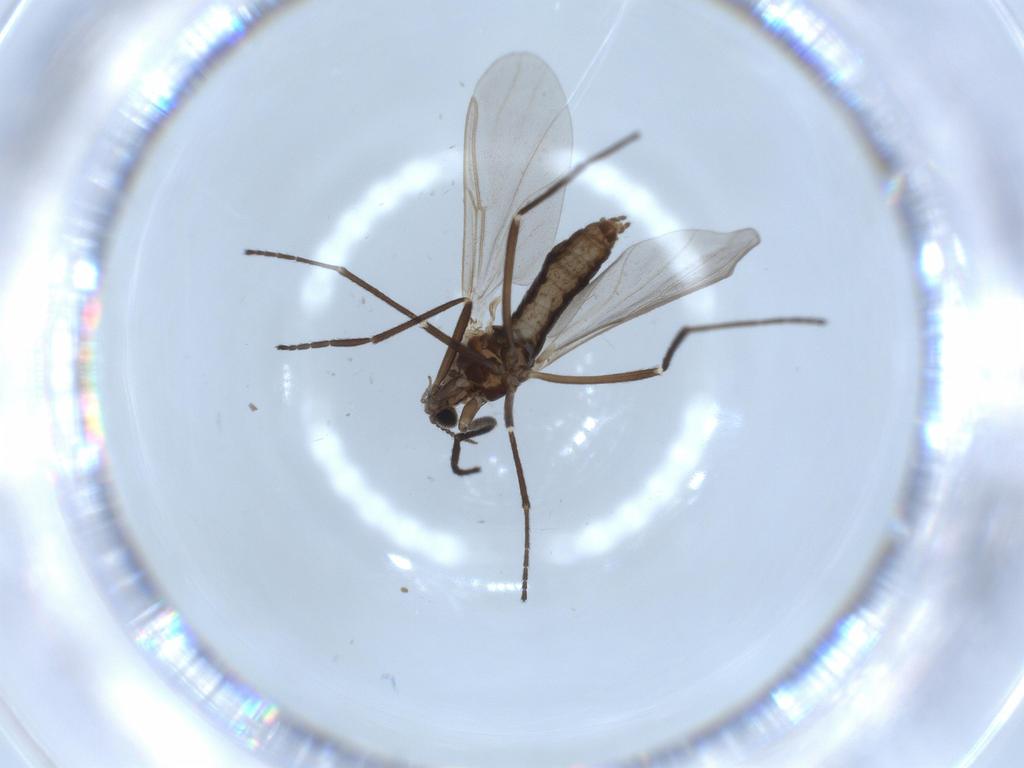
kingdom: Animalia
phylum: Arthropoda
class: Insecta
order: Diptera
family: Cecidomyiidae
